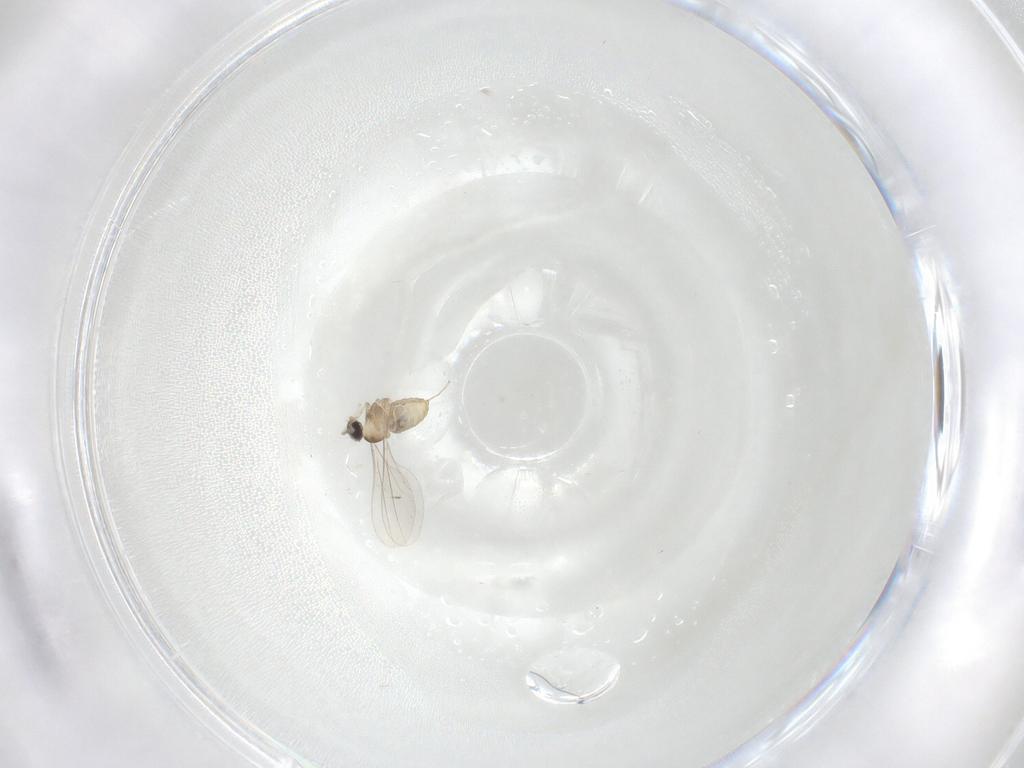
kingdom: Animalia
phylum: Arthropoda
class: Insecta
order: Diptera
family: Cecidomyiidae
